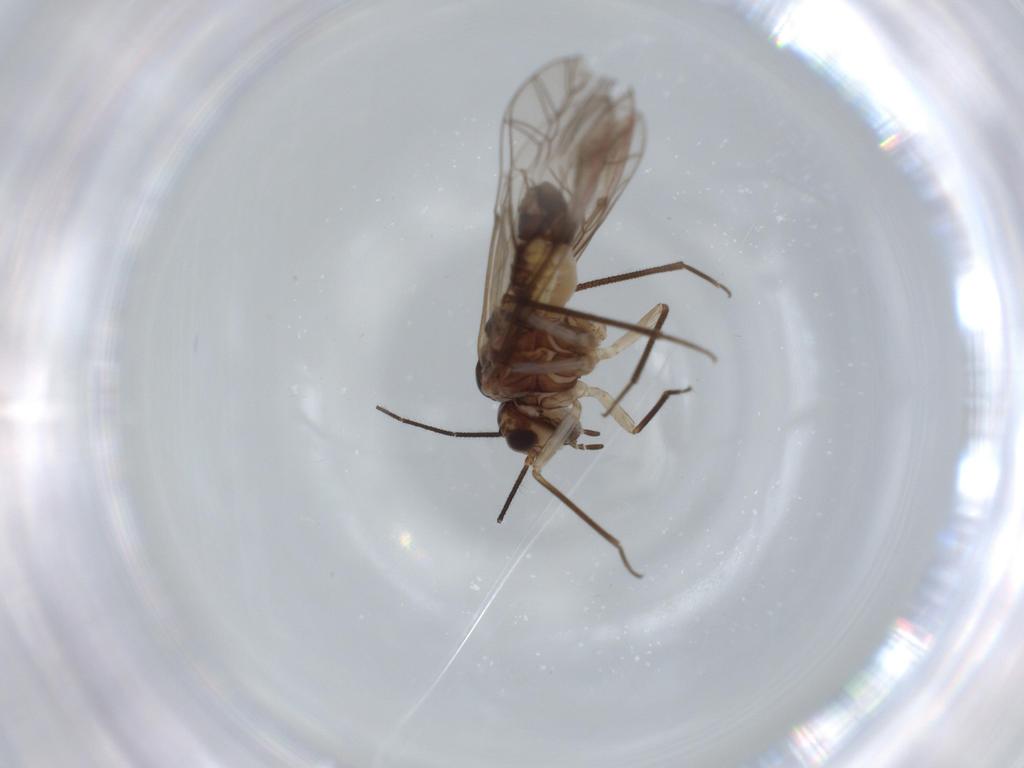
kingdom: Animalia
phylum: Arthropoda
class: Insecta
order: Psocodea
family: Psocidae
